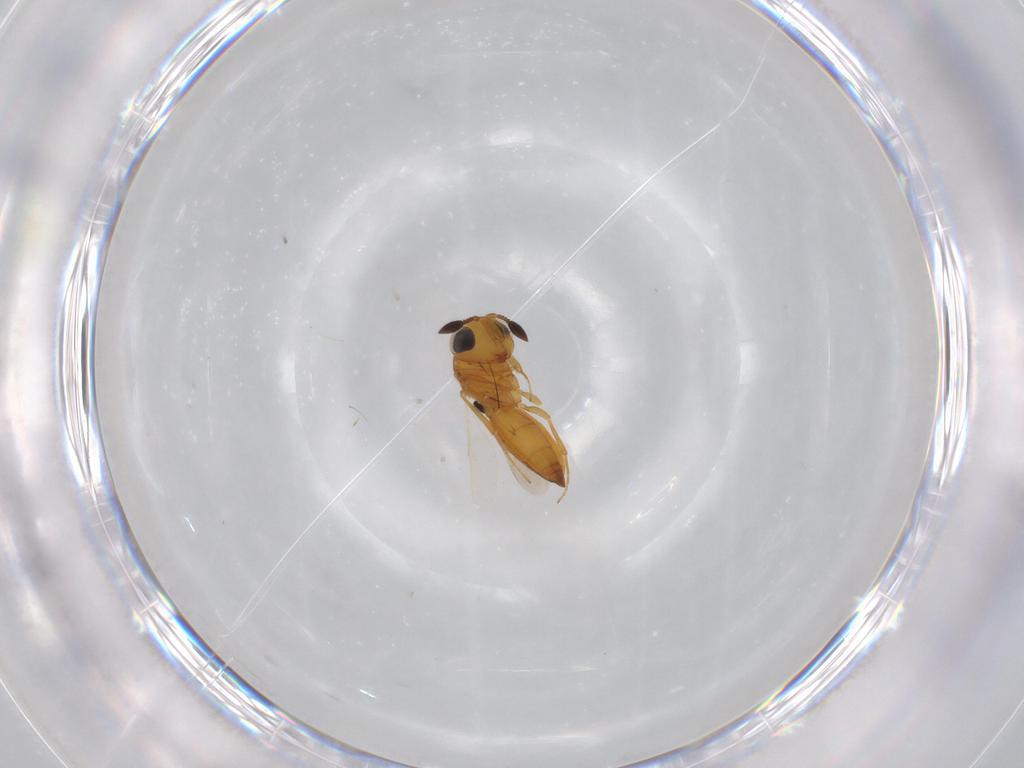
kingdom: Animalia
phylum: Arthropoda
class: Insecta
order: Hymenoptera
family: Scelionidae
